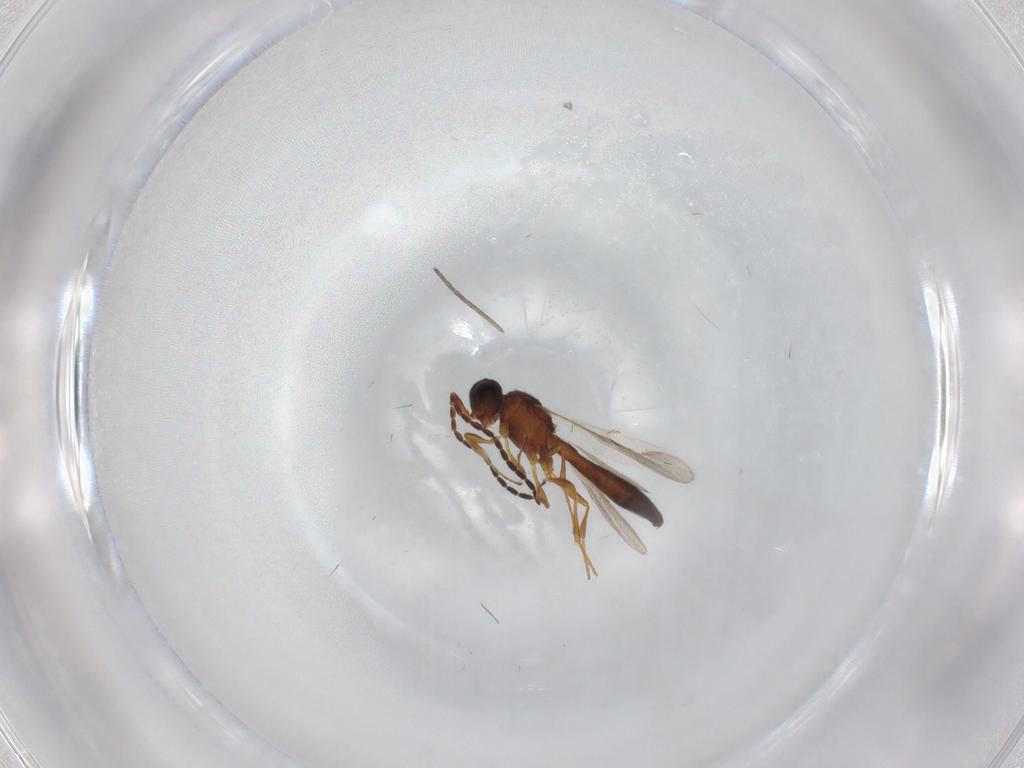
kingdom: Animalia
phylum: Arthropoda
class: Insecta
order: Hymenoptera
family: Scelionidae
